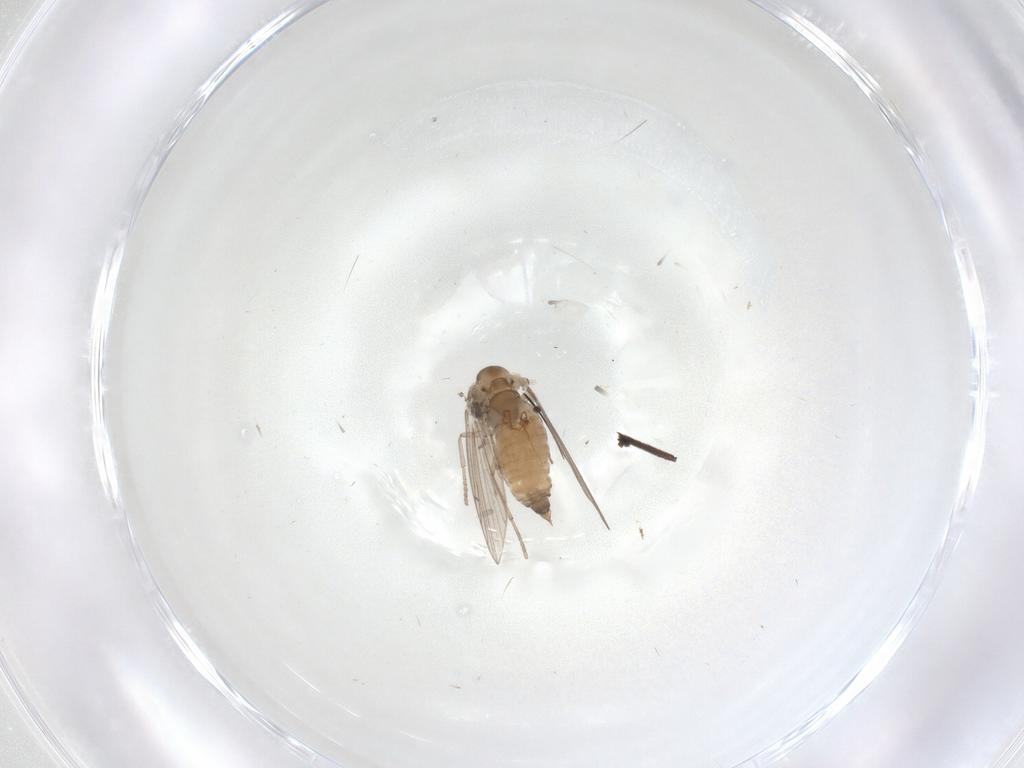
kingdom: Animalia
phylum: Arthropoda
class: Insecta
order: Diptera
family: Psychodidae
